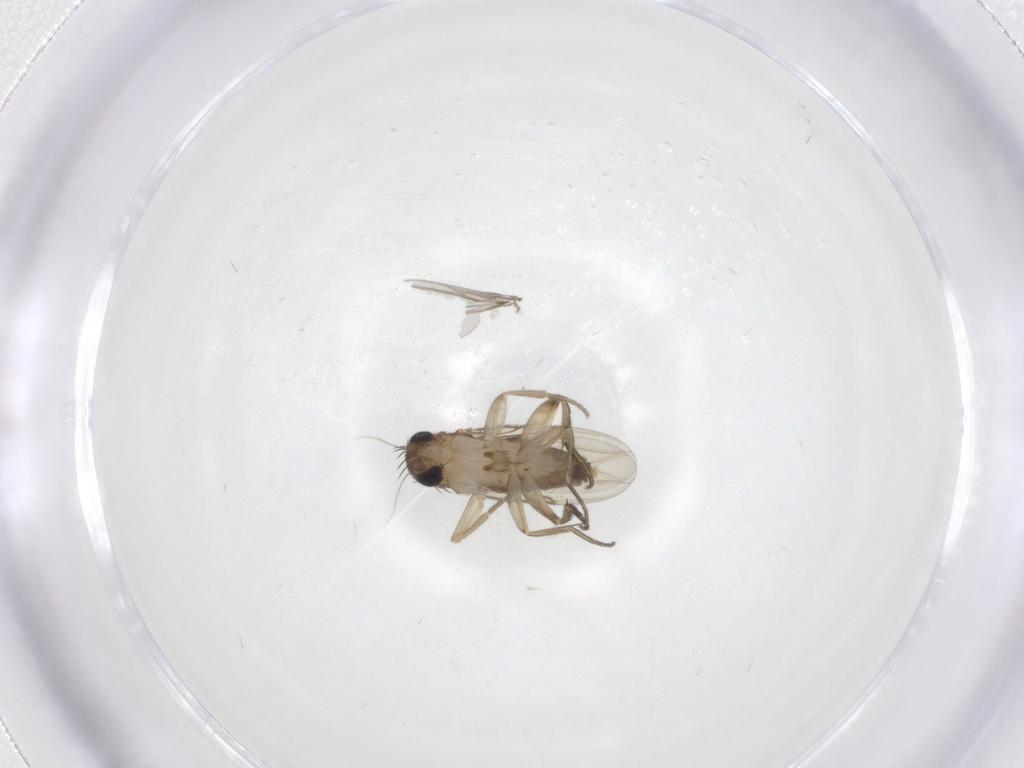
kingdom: Animalia
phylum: Arthropoda
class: Insecta
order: Diptera
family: Phoridae
